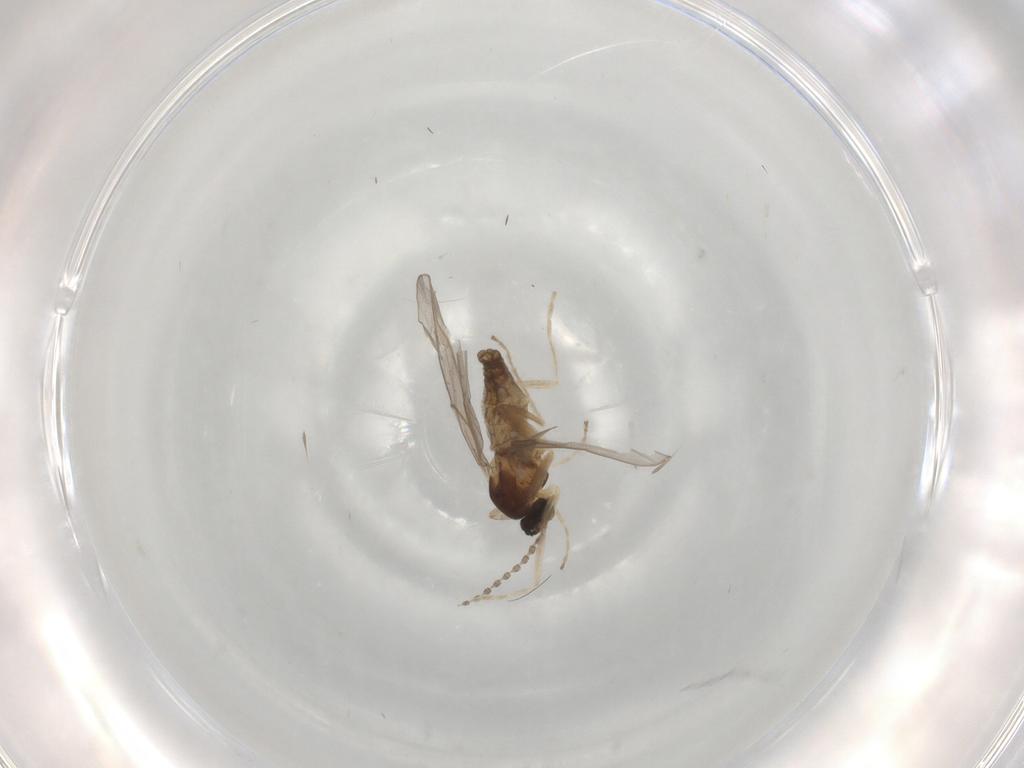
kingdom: Animalia
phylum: Arthropoda
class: Insecta
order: Diptera
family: Cecidomyiidae
